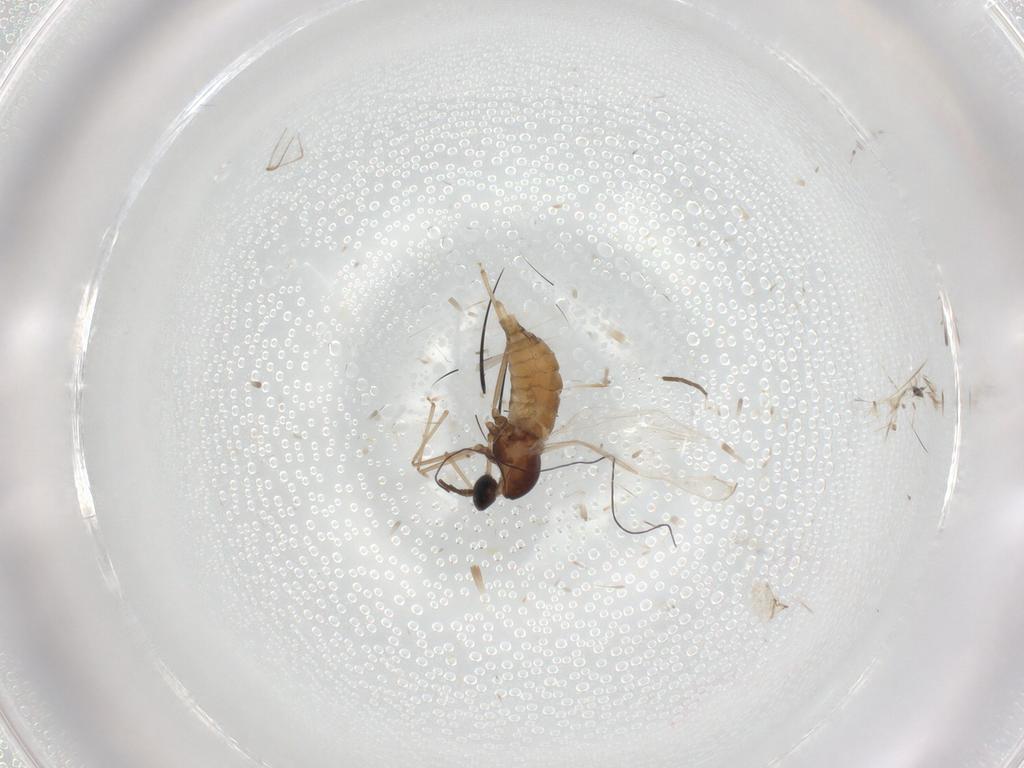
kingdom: Animalia
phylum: Arthropoda
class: Insecta
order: Diptera
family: Cecidomyiidae
